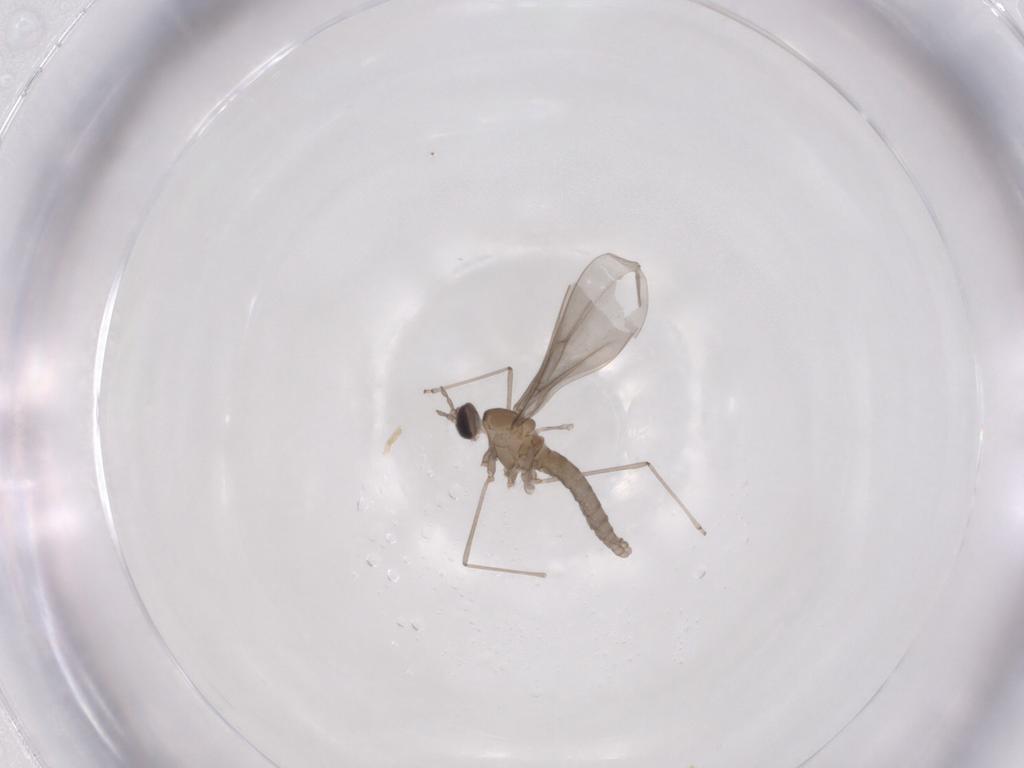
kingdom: Animalia
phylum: Arthropoda
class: Insecta
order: Diptera
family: Cecidomyiidae
